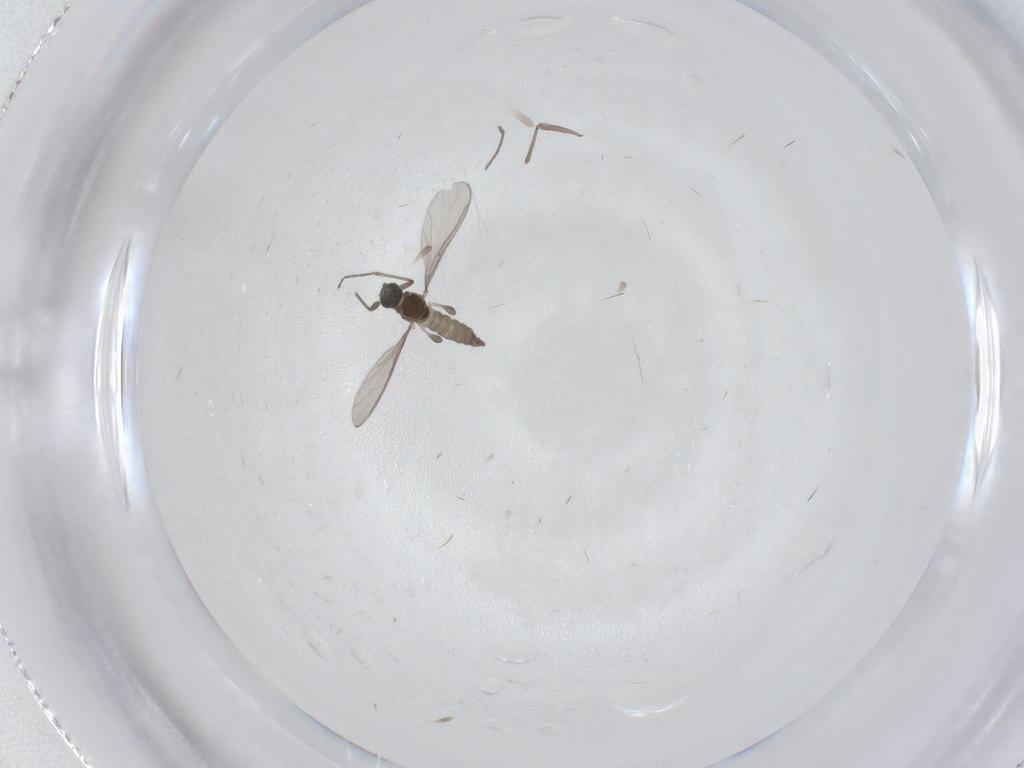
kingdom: Animalia
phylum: Arthropoda
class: Insecta
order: Diptera
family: Sciaridae
